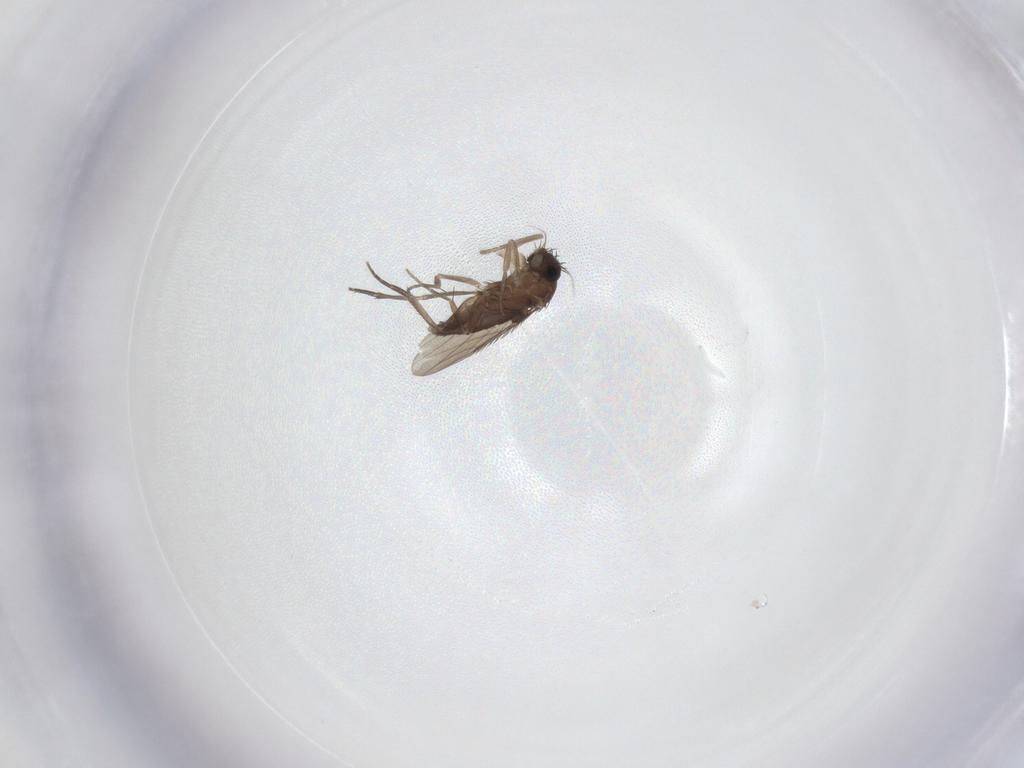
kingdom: Animalia
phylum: Arthropoda
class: Insecta
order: Diptera
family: Phoridae
